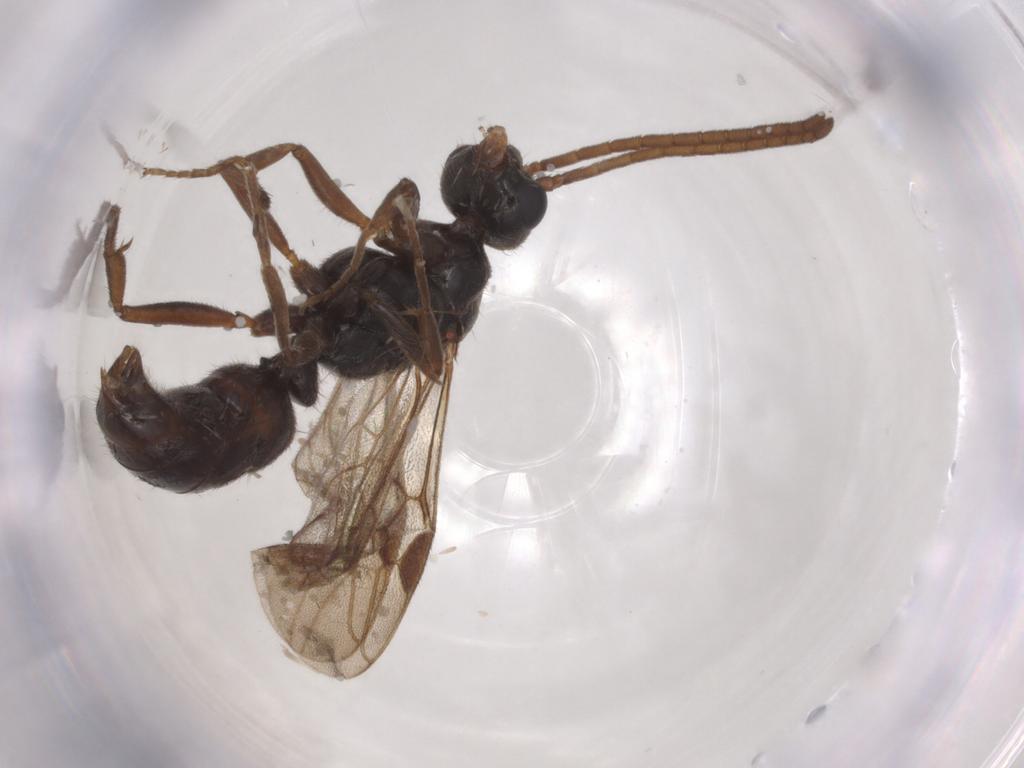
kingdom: Animalia
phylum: Arthropoda
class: Insecta
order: Hymenoptera
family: Formicidae
